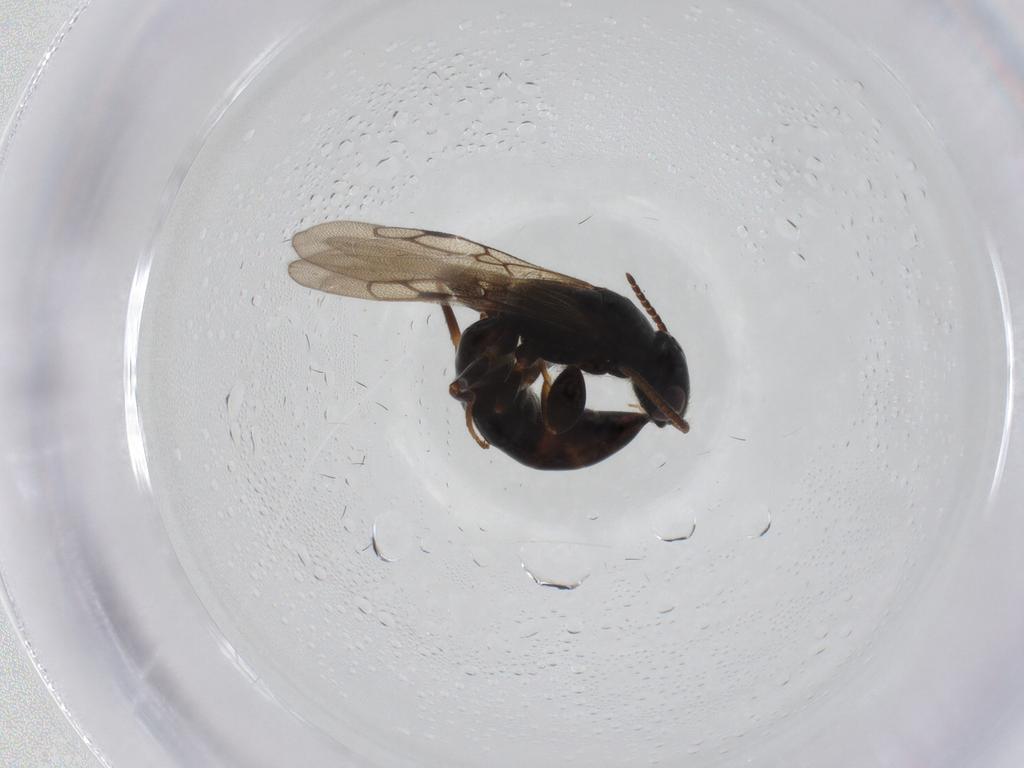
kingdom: Animalia
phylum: Arthropoda
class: Insecta
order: Hymenoptera
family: Bethylidae
